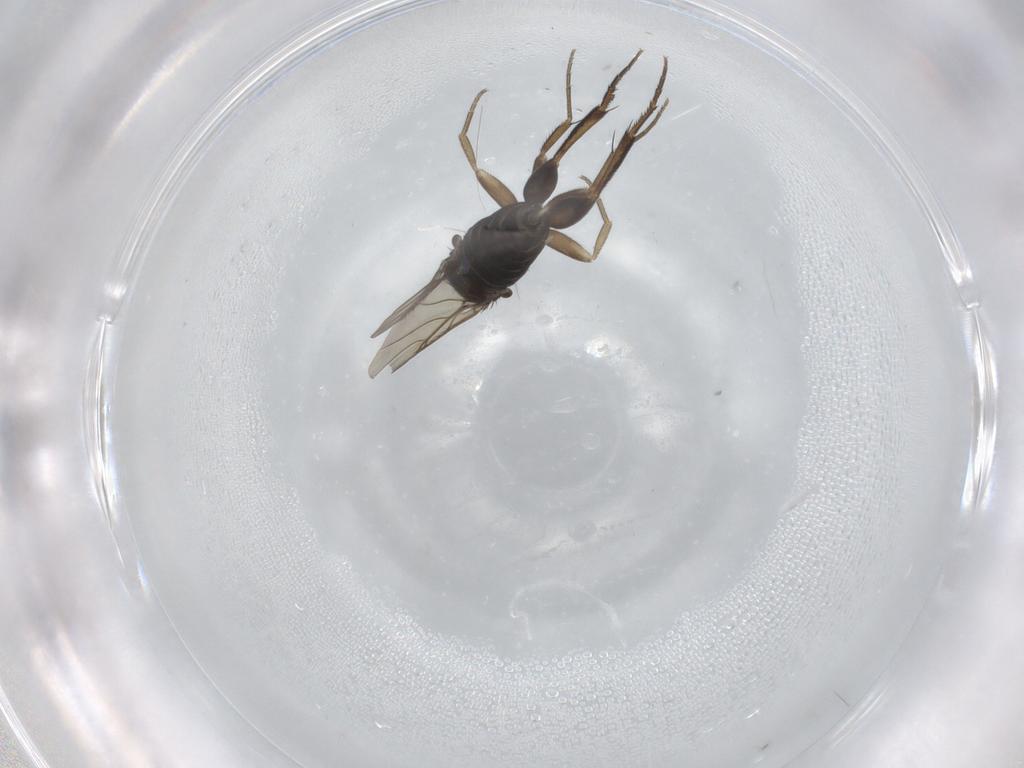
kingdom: Animalia
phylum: Arthropoda
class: Insecta
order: Diptera
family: Phoridae
